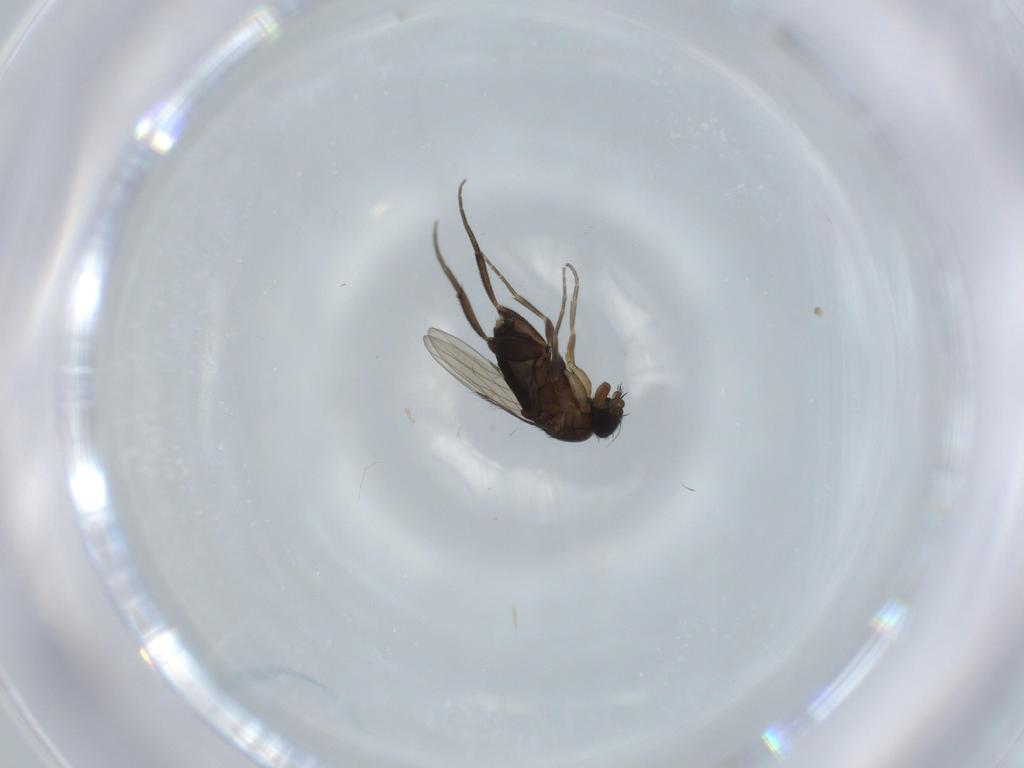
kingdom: Animalia
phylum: Arthropoda
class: Insecta
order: Diptera
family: Phoridae
